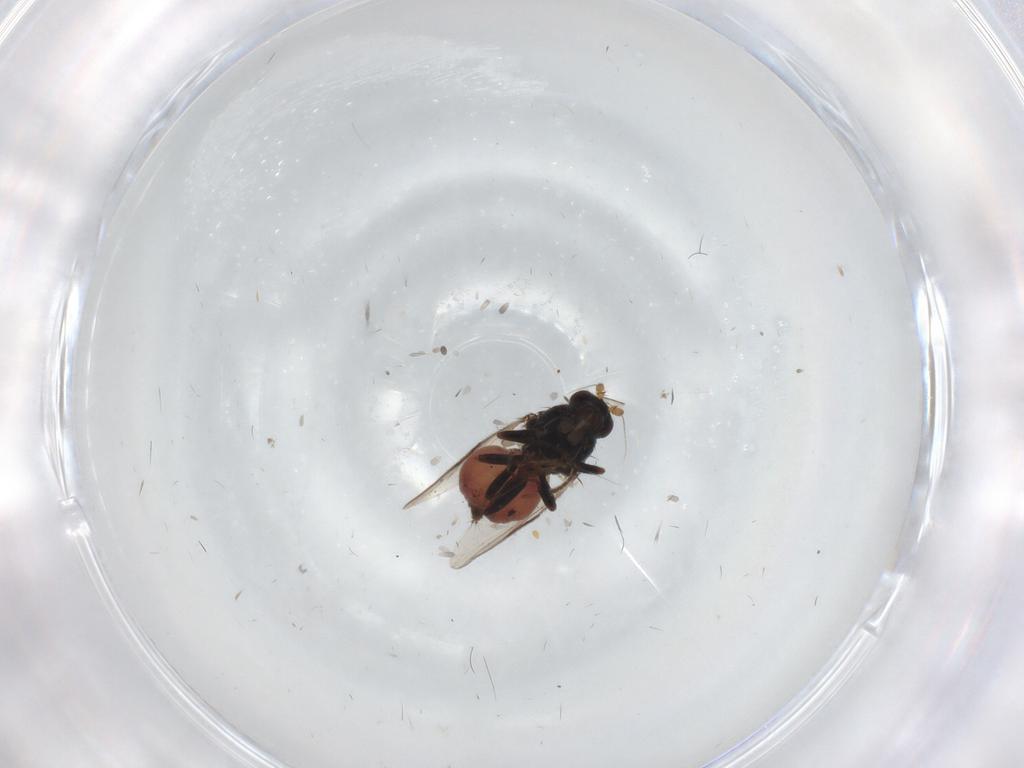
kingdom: Animalia
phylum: Arthropoda
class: Insecta
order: Diptera
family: Sphaeroceridae
